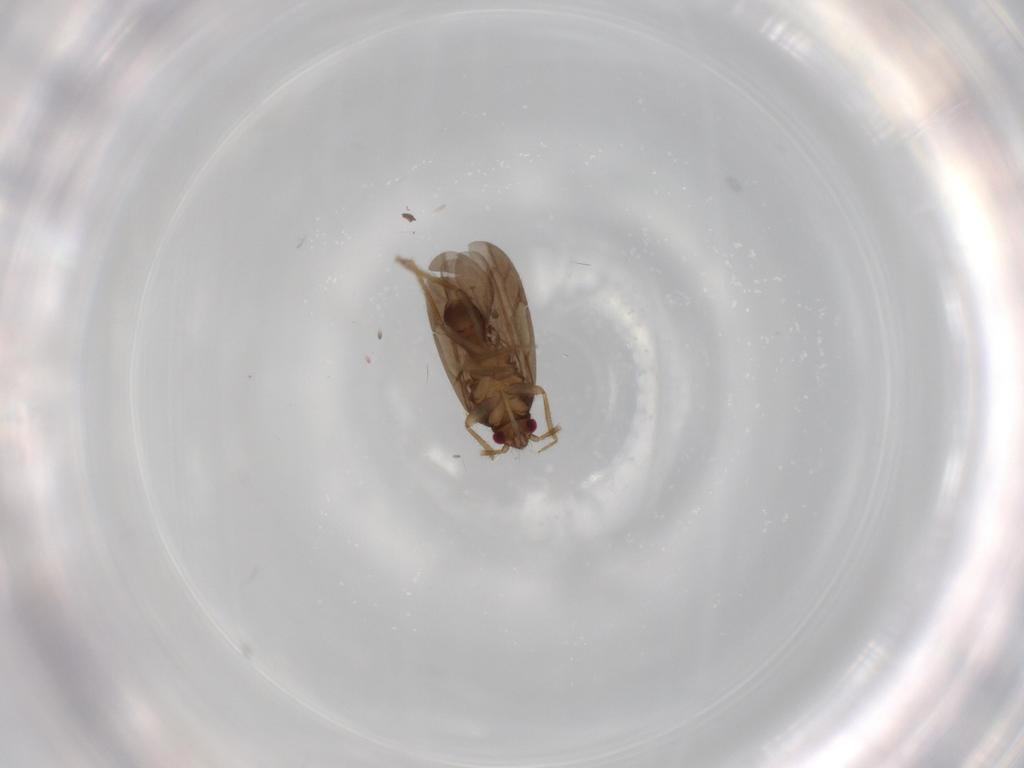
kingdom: Animalia
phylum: Arthropoda
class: Insecta
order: Hemiptera
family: Ceratocombidae
